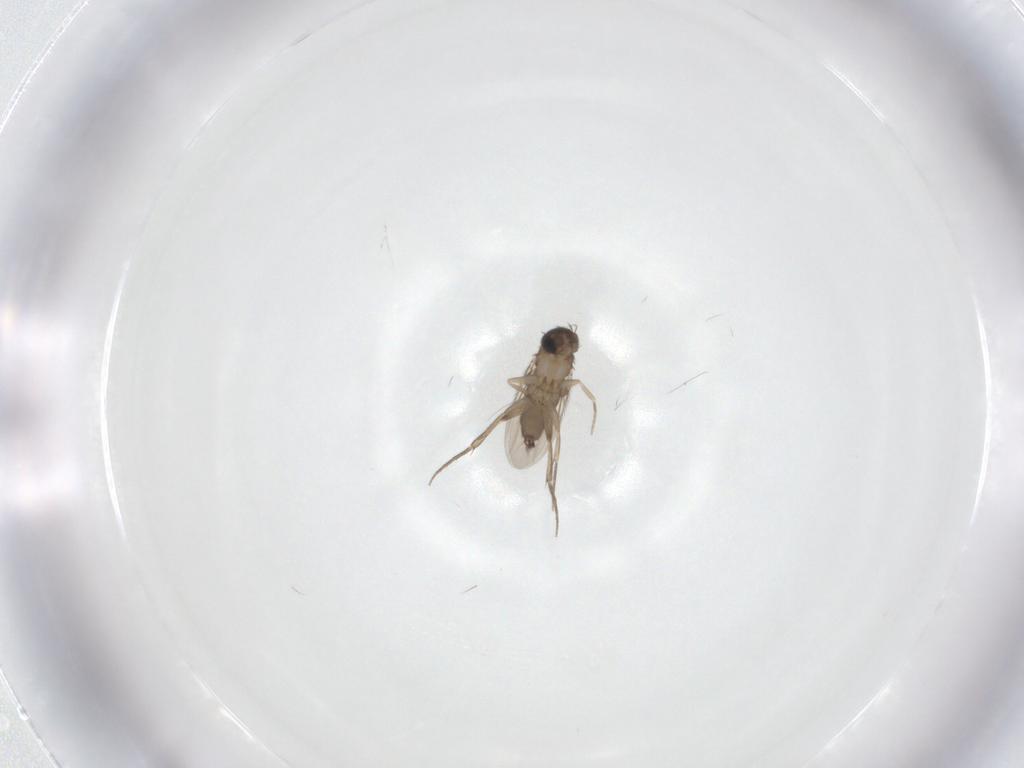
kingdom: Animalia
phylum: Arthropoda
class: Insecta
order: Diptera
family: Phoridae
